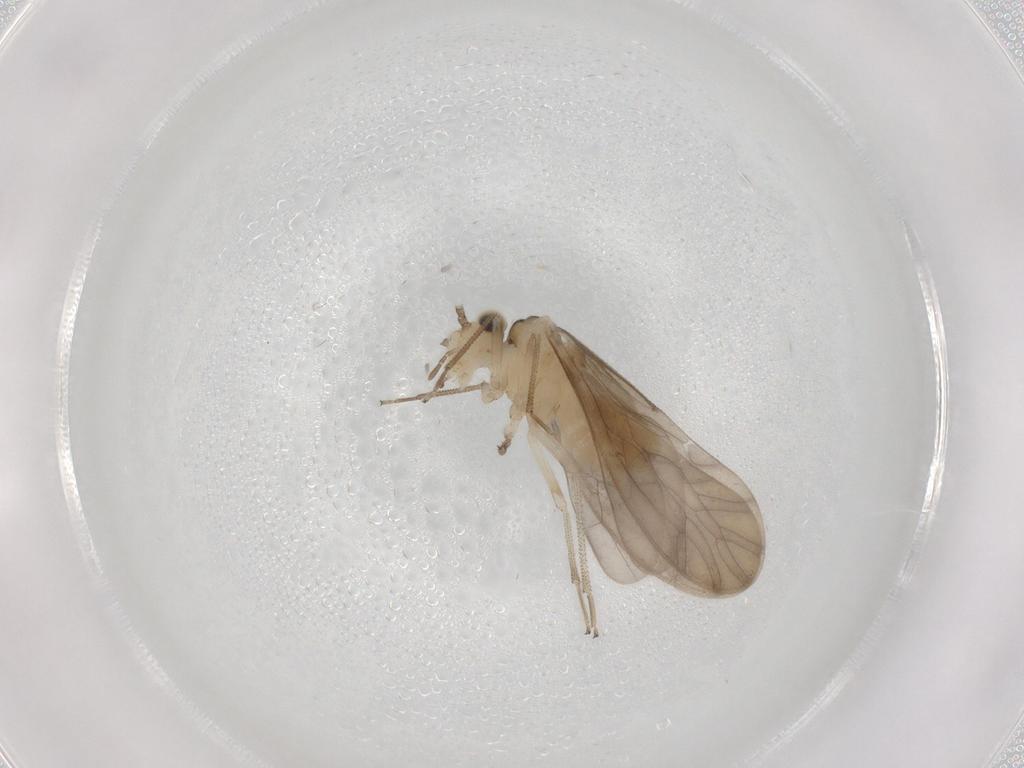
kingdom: Animalia
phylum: Arthropoda
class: Insecta
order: Psocodea
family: Caeciliusidae
